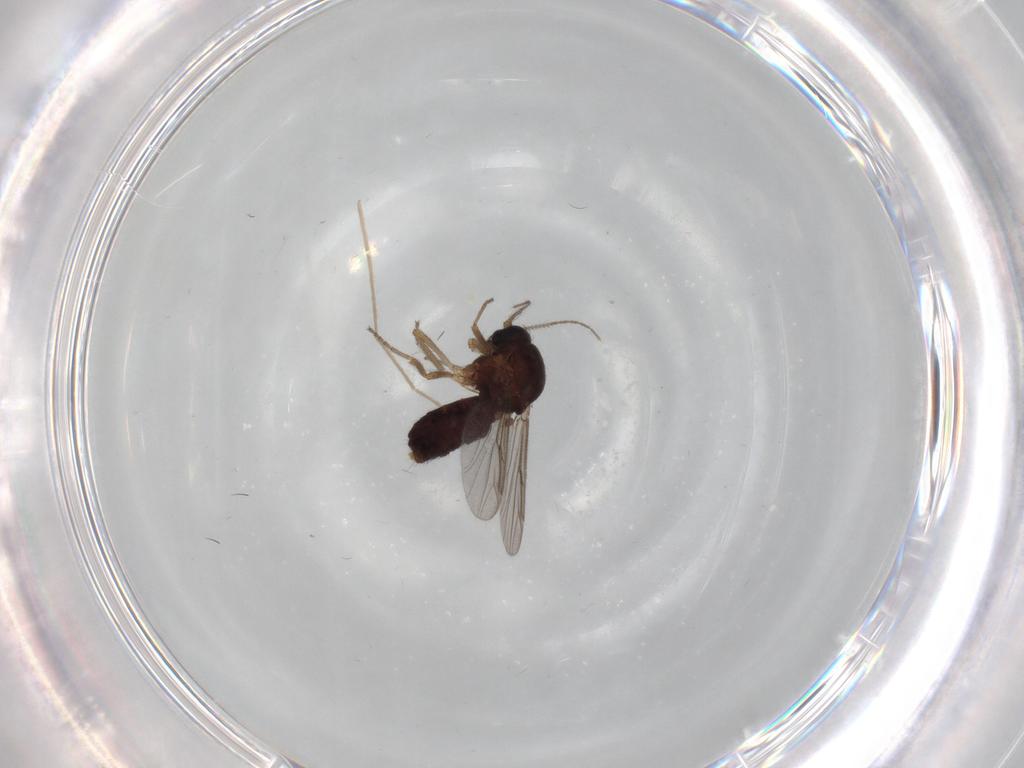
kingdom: Animalia
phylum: Arthropoda
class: Insecta
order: Diptera
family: Ceratopogonidae
